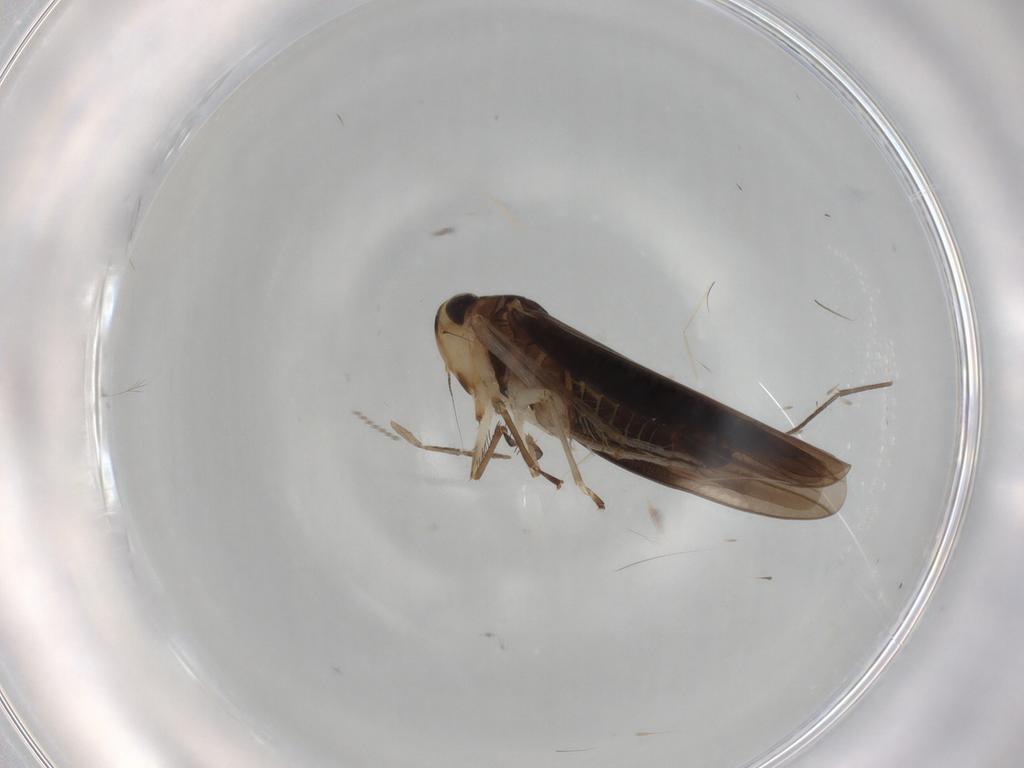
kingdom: Animalia
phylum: Arthropoda
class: Insecta
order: Hemiptera
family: Cicadellidae
